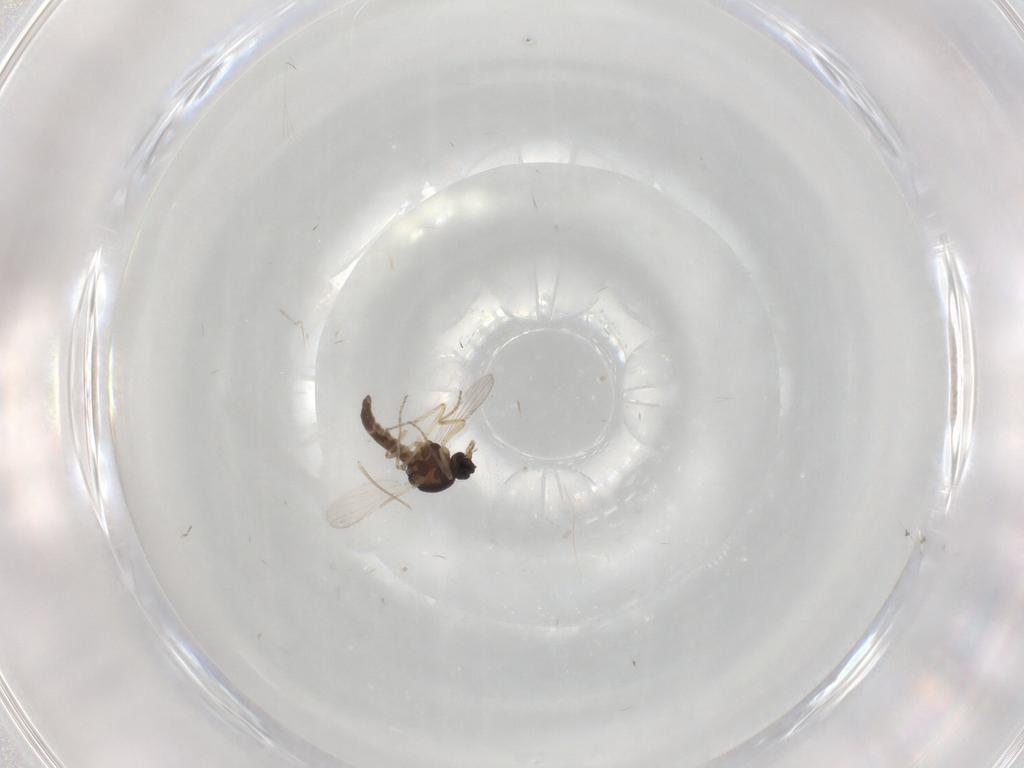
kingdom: Animalia
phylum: Arthropoda
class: Insecta
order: Diptera
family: Ceratopogonidae
